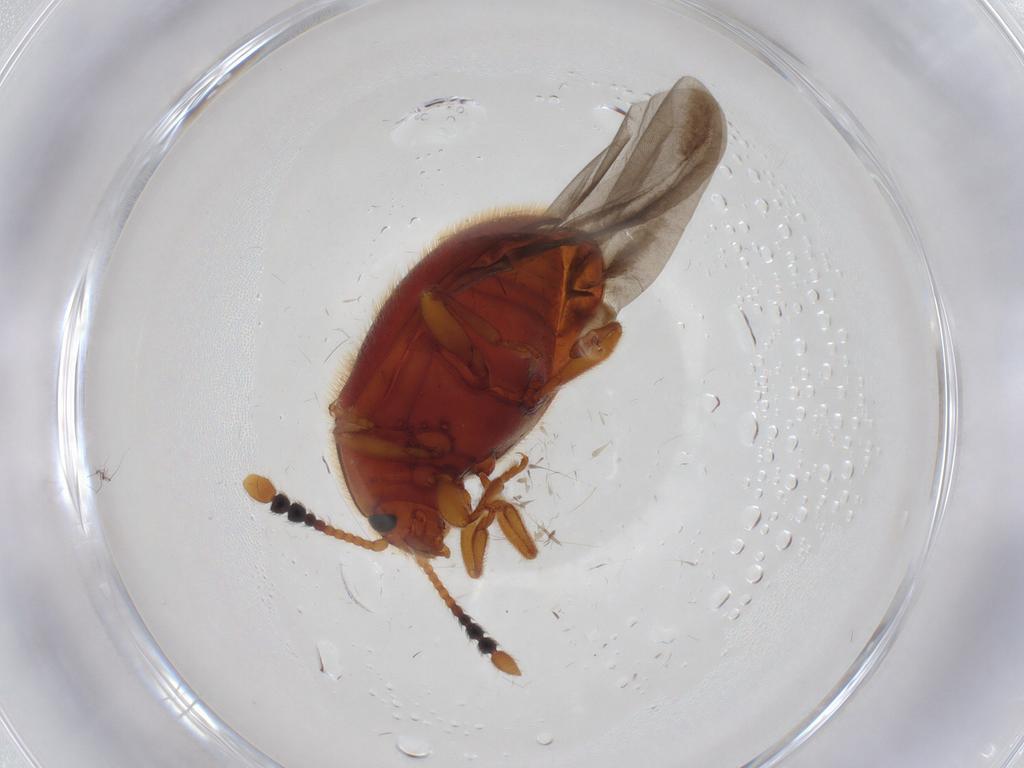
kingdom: Animalia
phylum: Arthropoda
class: Insecta
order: Coleoptera
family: Endomychidae
